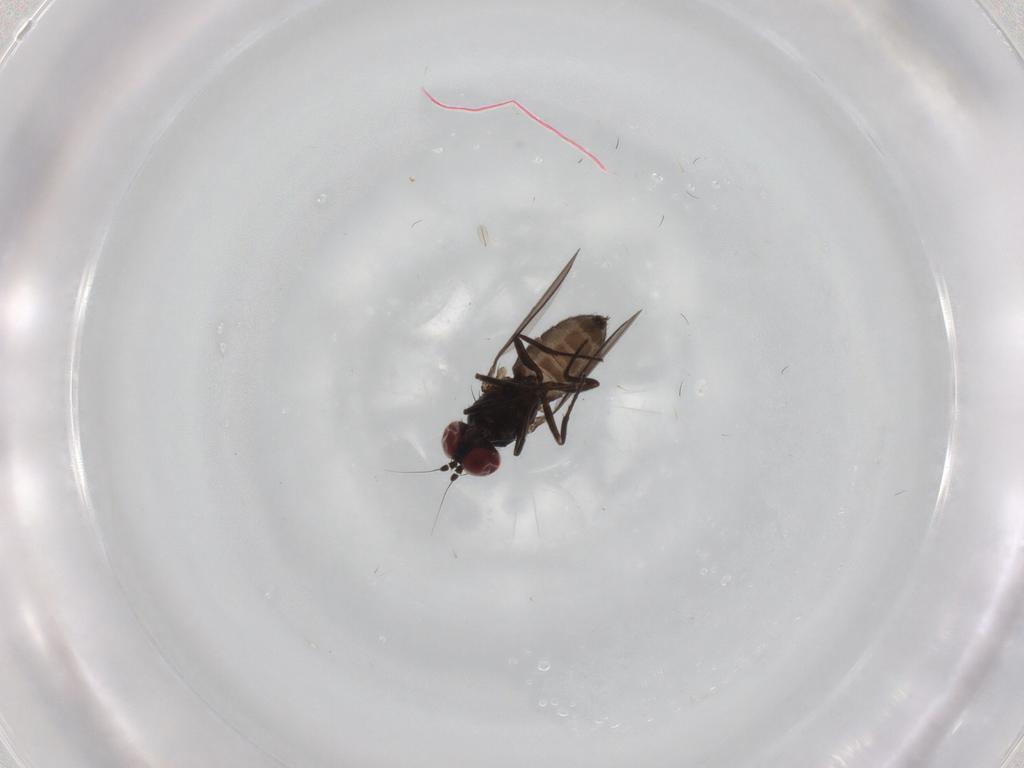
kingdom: Animalia
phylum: Arthropoda
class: Insecta
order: Diptera
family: Dolichopodidae
